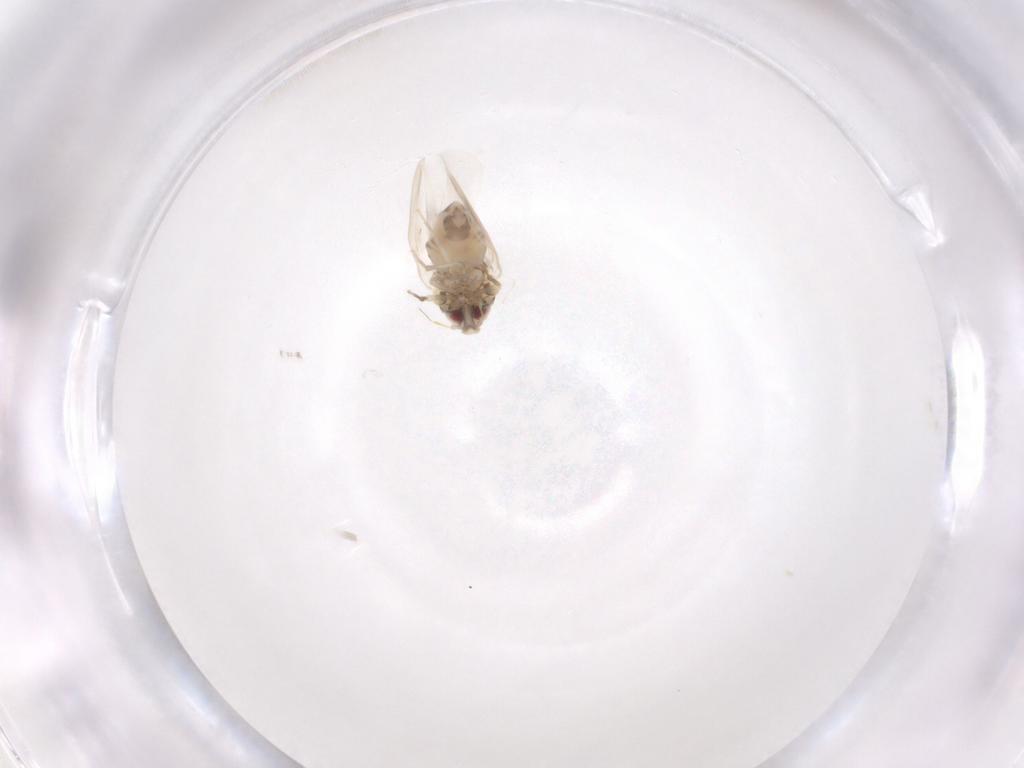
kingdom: Animalia
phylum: Arthropoda
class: Insecta
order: Hemiptera
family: Aleyrodidae
